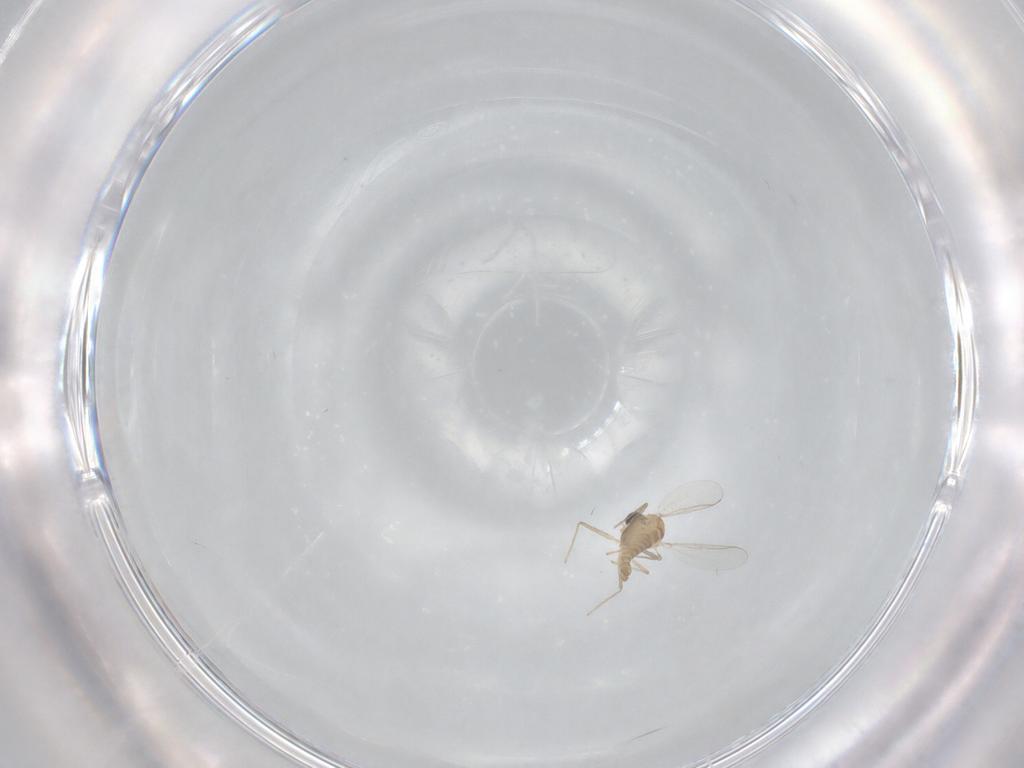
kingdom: Animalia
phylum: Arthropoda
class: Insecta
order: Diptera
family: Chironomidae
